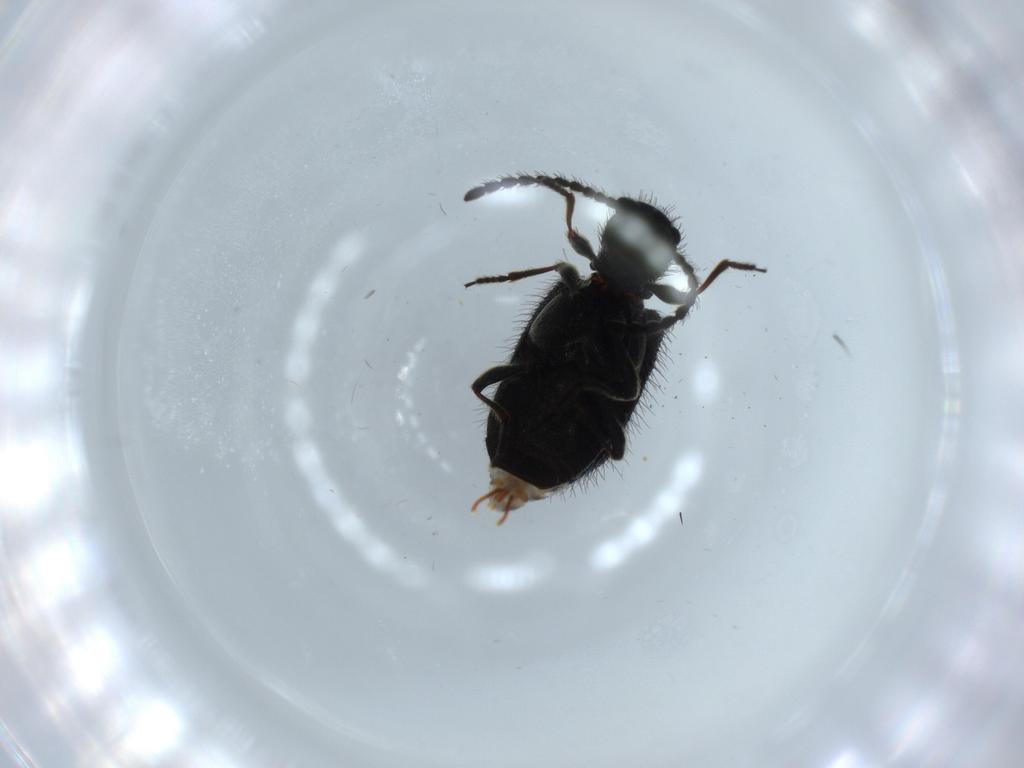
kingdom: Animalia
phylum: Arthropoda
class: Insecta
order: Coleoptera
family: Ptinidae
